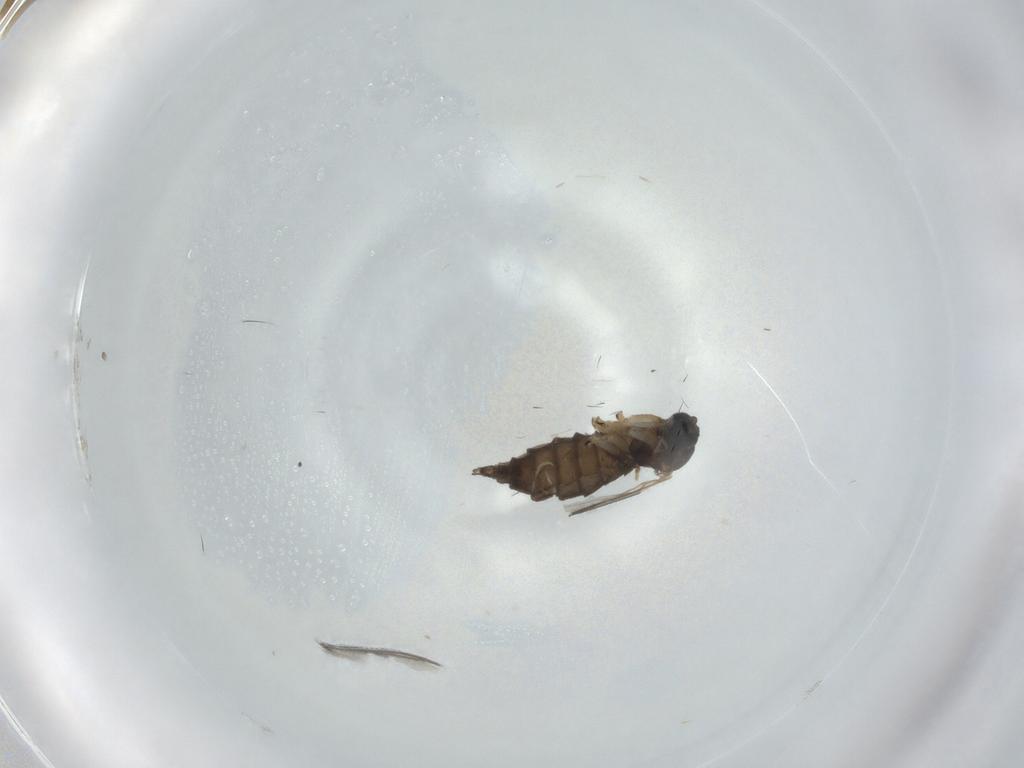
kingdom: Animalia
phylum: Arthropoda
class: Insecta
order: Diptera
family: Sciaridae
